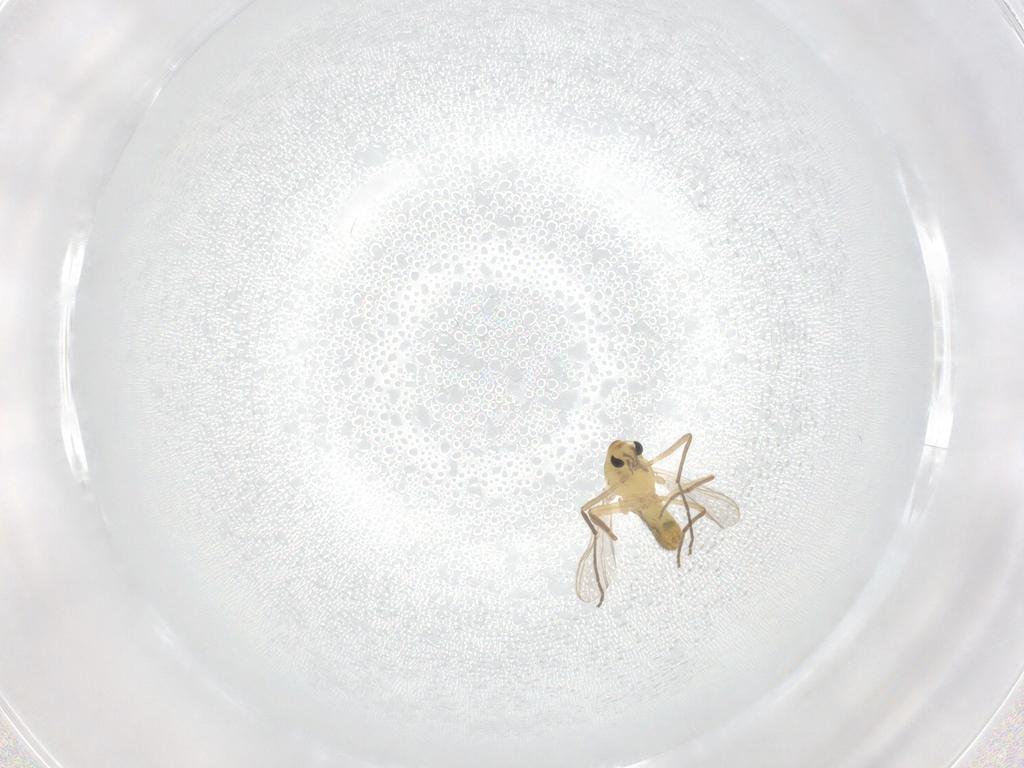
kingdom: Animalia
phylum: Arthropoda
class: Insecta
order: Diptera
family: Chironomidae
